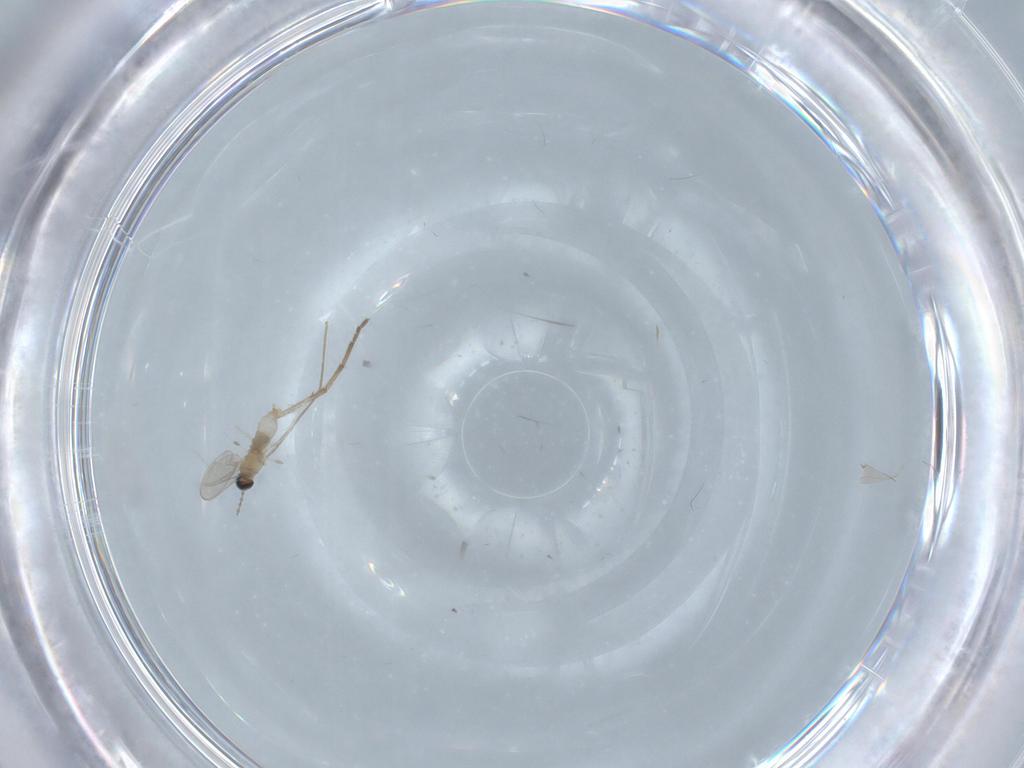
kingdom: Animalia
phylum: Arthropoda
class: Insecta
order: Diptera
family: Cecidomyiidae
